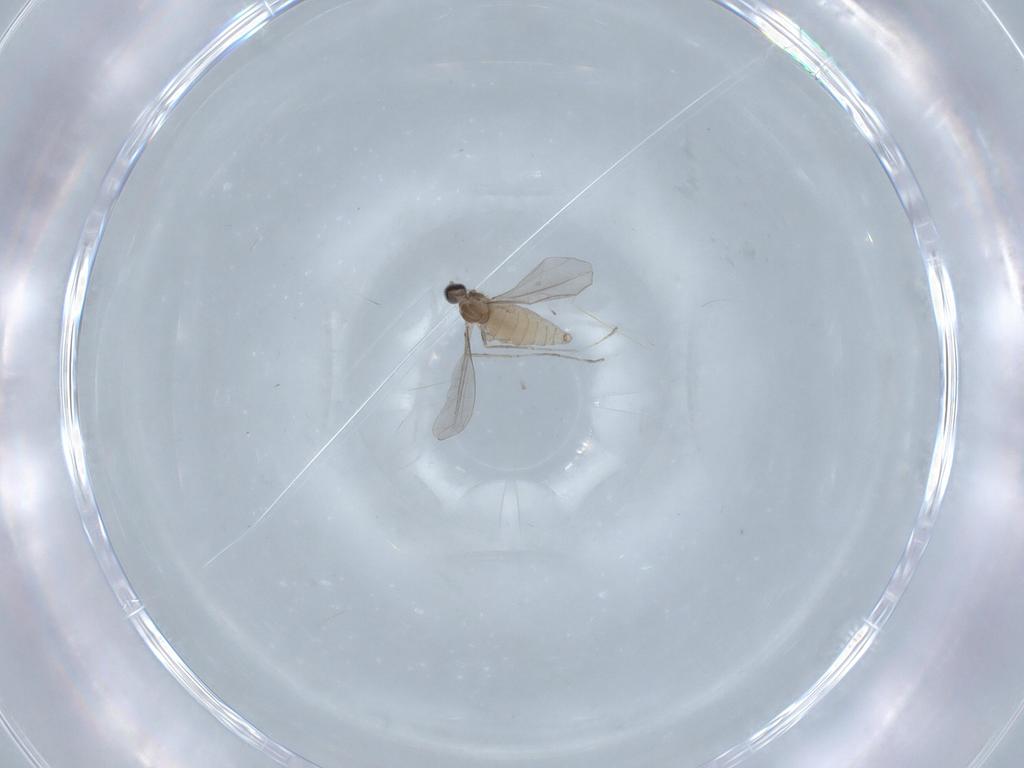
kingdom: Animalia
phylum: Arthropoda
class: Insecta
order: Diptera
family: Cecidomyiidae
